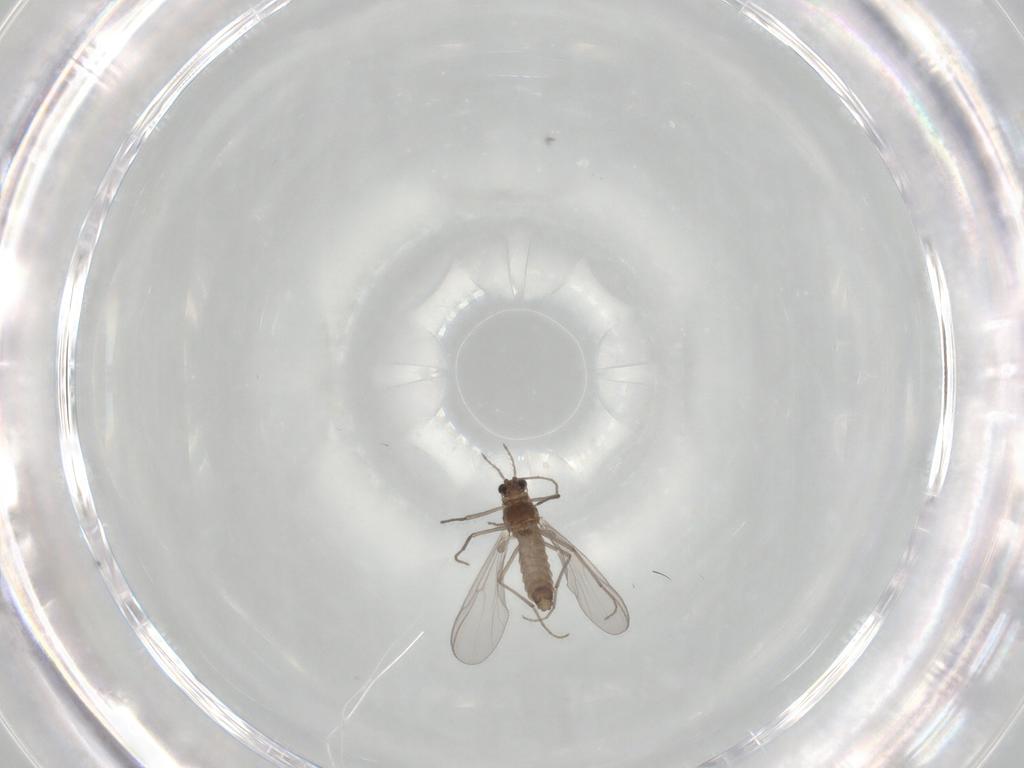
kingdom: Animalia
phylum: Arthropoda
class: Insecta
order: Diptera
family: Chironomidae
